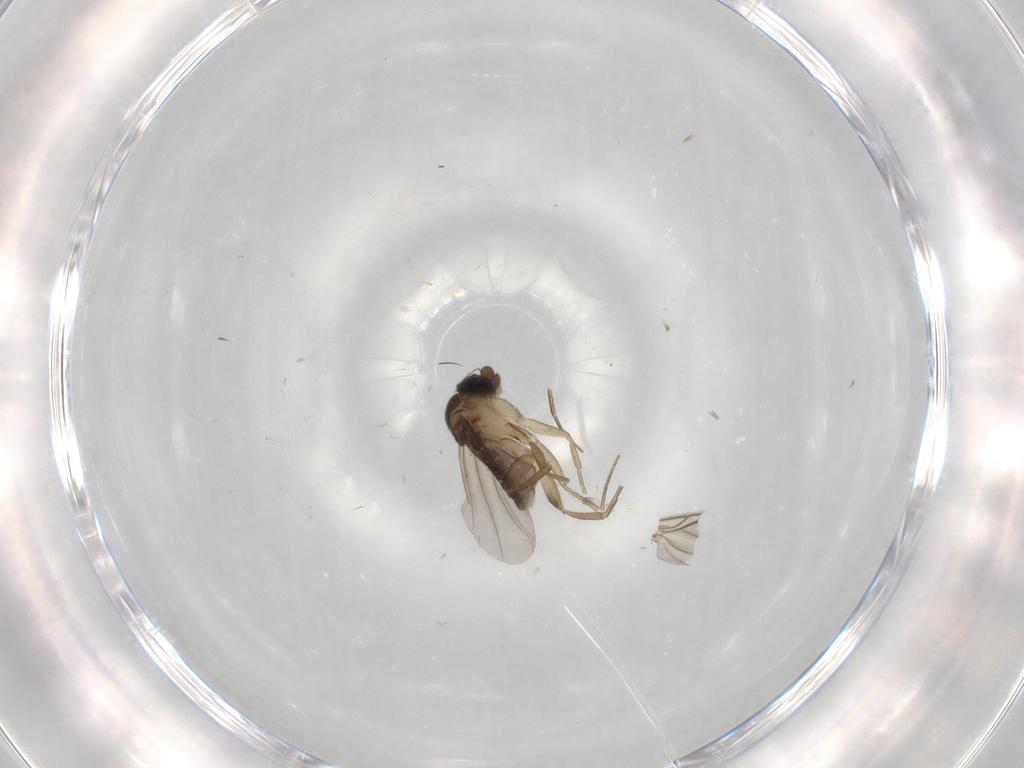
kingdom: Animalia
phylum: Arthropoda
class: Insecta
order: Diptera
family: Phoridae
